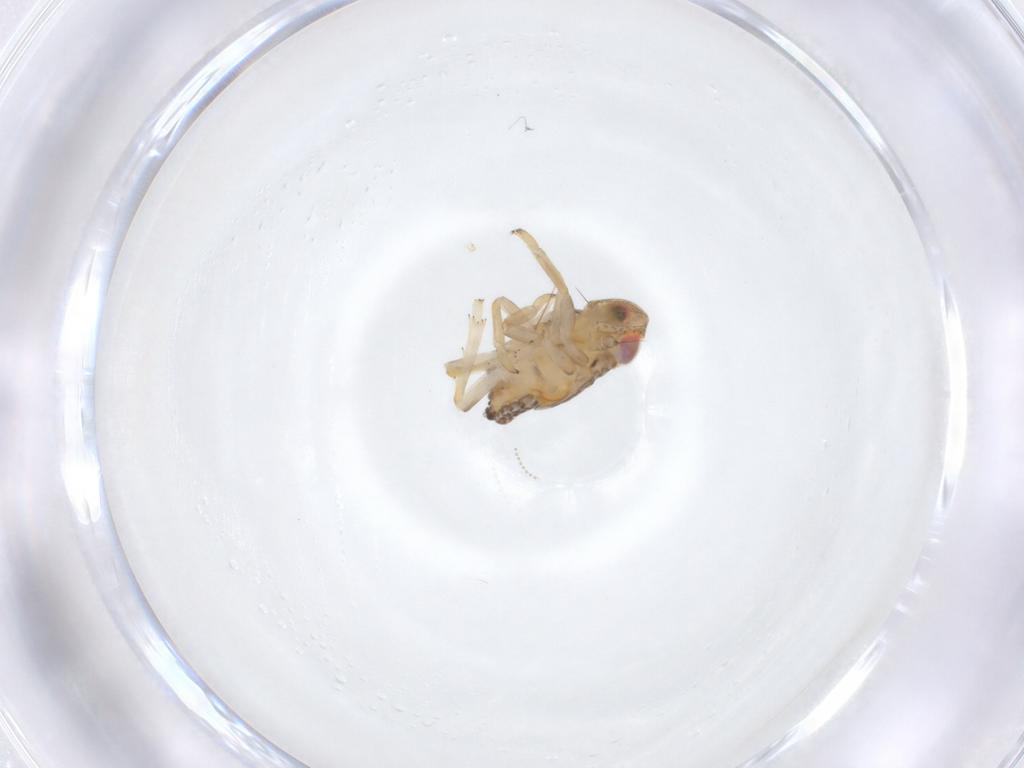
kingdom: Animalia
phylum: Arthropoda
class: Insecta
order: Hemiptera
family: Issidae
